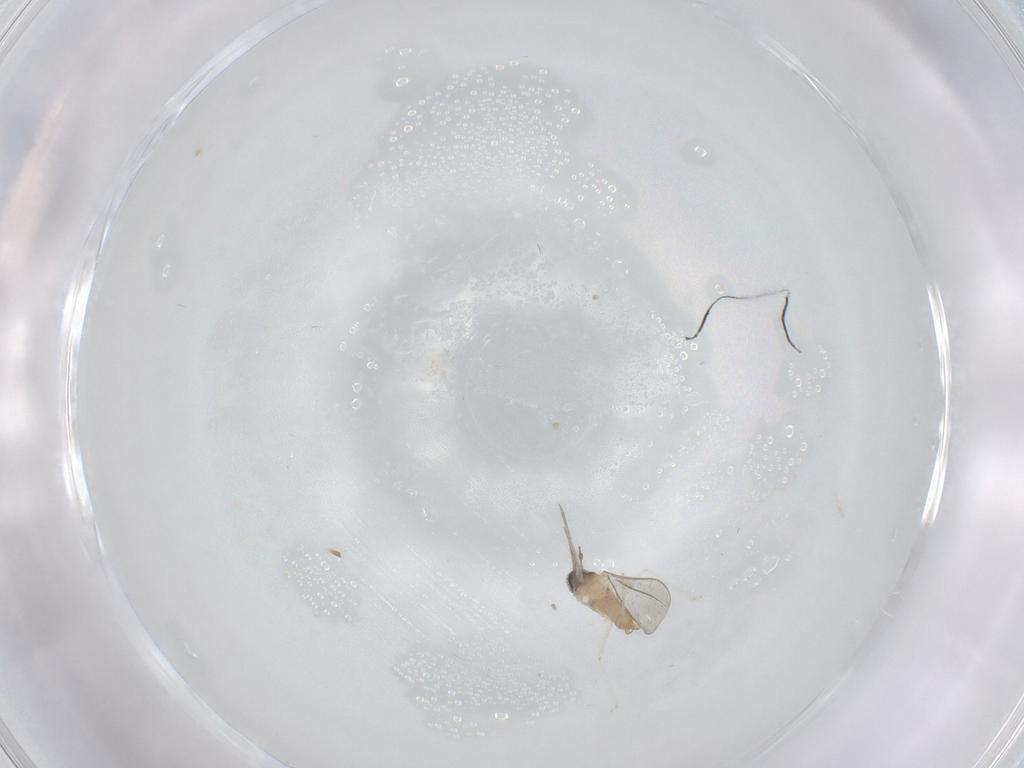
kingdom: Animalia
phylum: Arthropoda
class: Insecta
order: Diptera
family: Cecidomyiidae
